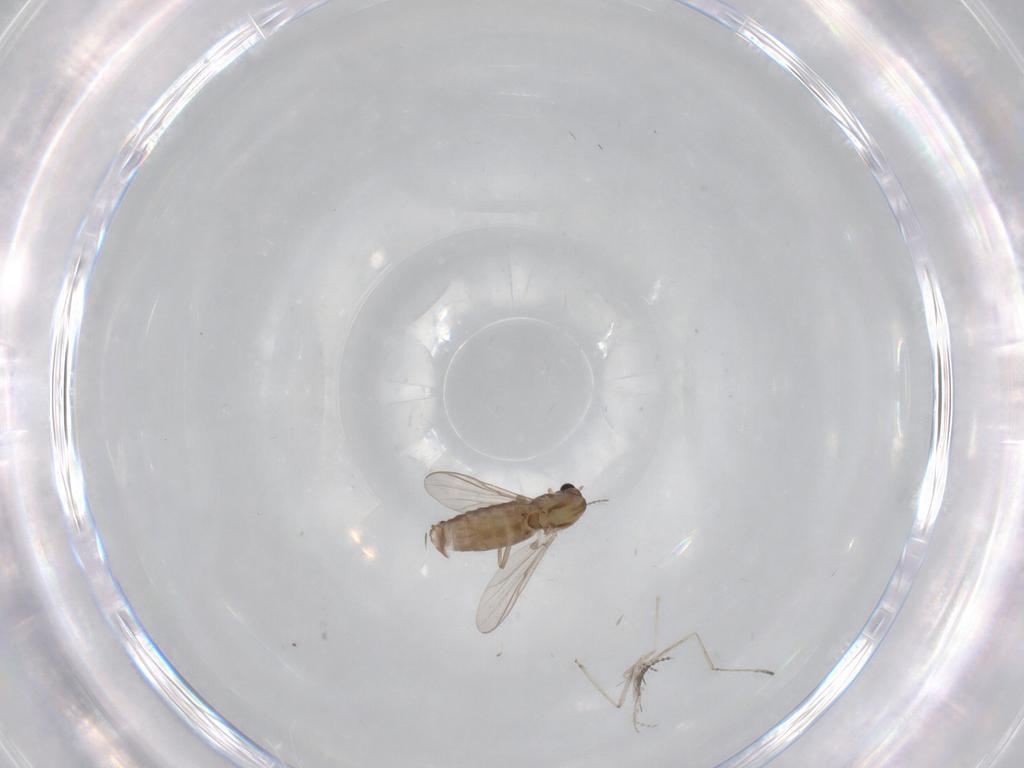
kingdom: Animalia
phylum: Arthropoda
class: Insecta
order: Diptera
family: Chironomidae
